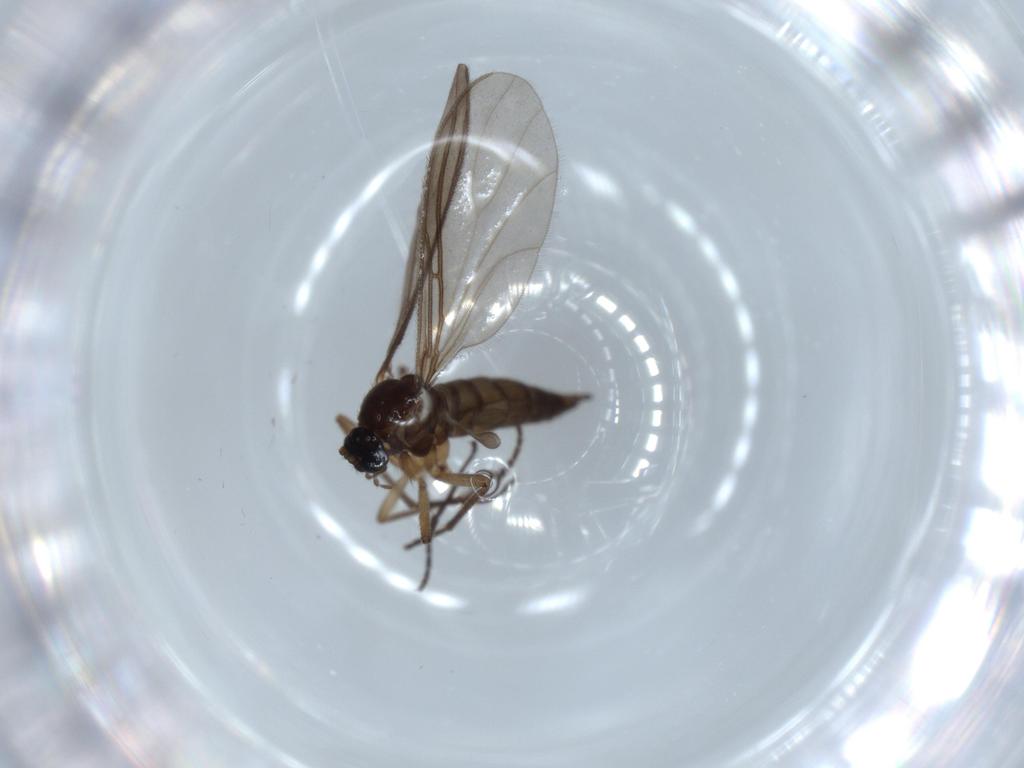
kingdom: Animalia
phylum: Arthropoda
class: Insecta
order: Diptera
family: Sciaridae
